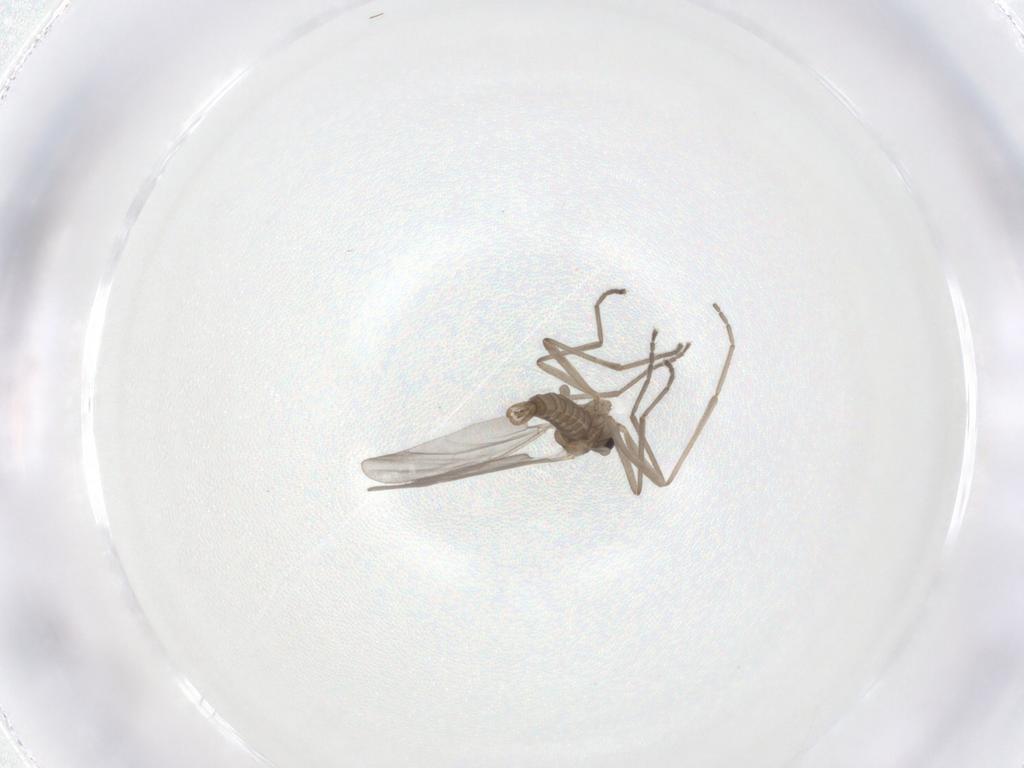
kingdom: Animalia
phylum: Arthropoda
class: Insecta
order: Diptera
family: Cecidomyiidae
